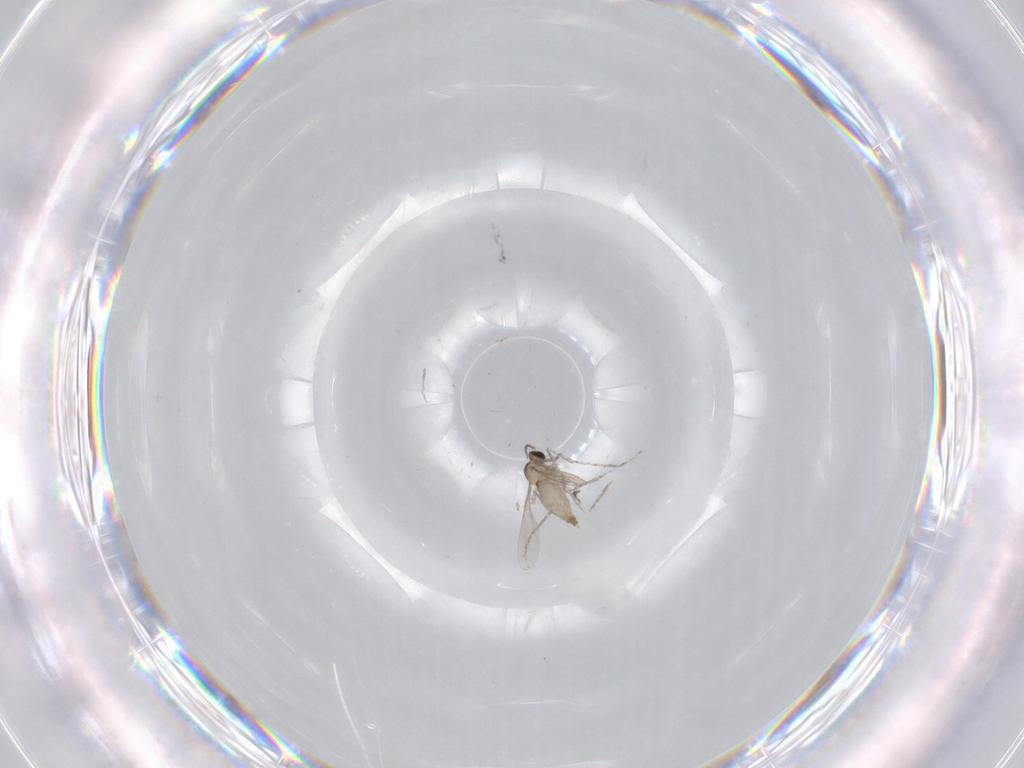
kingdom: Animalia
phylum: Arthropoda
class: Insecta
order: Diptera
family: Cecidomyiidae
